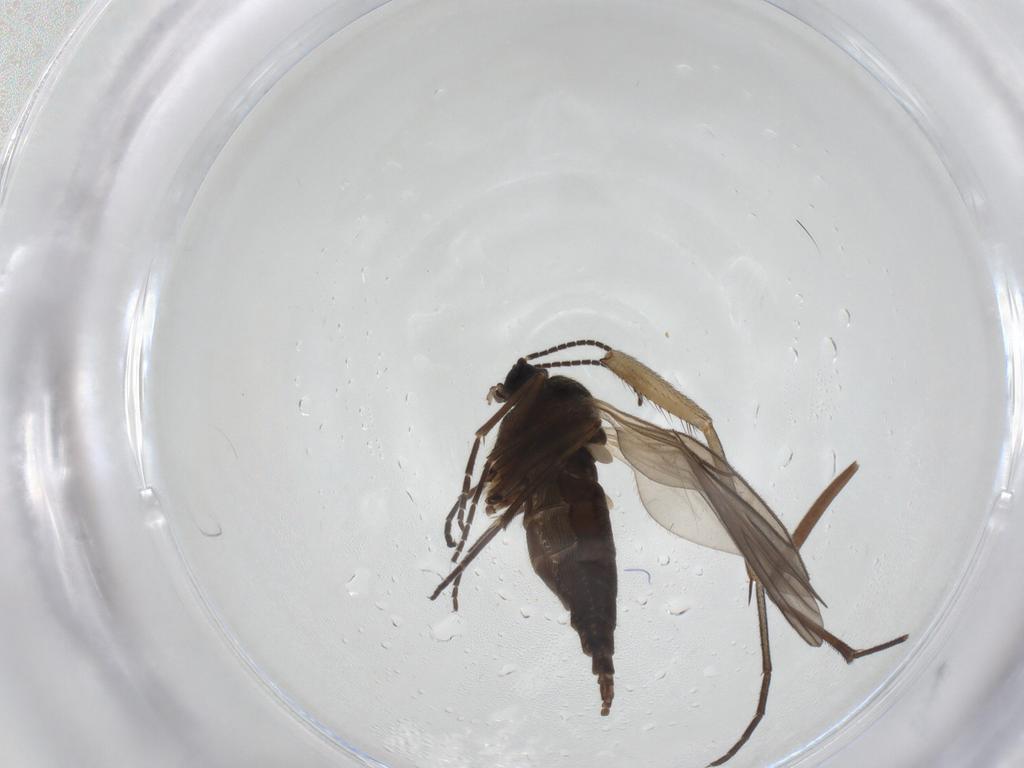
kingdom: Animalia
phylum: Arthropoda
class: Insecta
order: Diptera
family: Sciaridae
